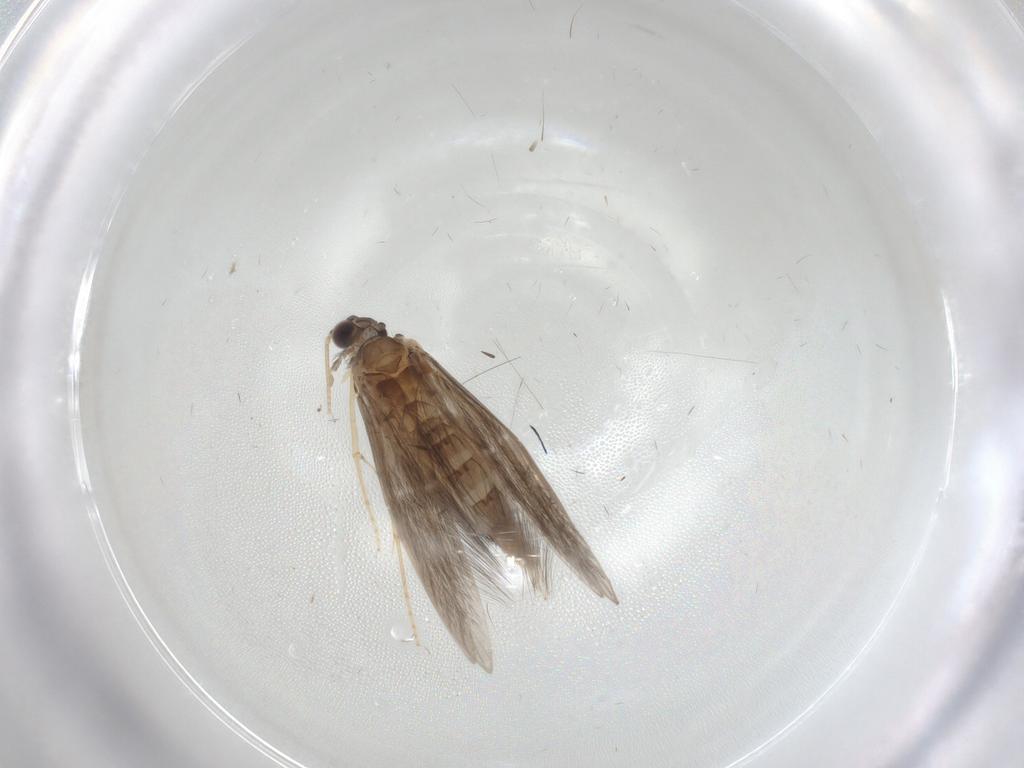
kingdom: Animalia
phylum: Arthropoda
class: Insecta
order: Trichoptera
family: Hydroptilidae
